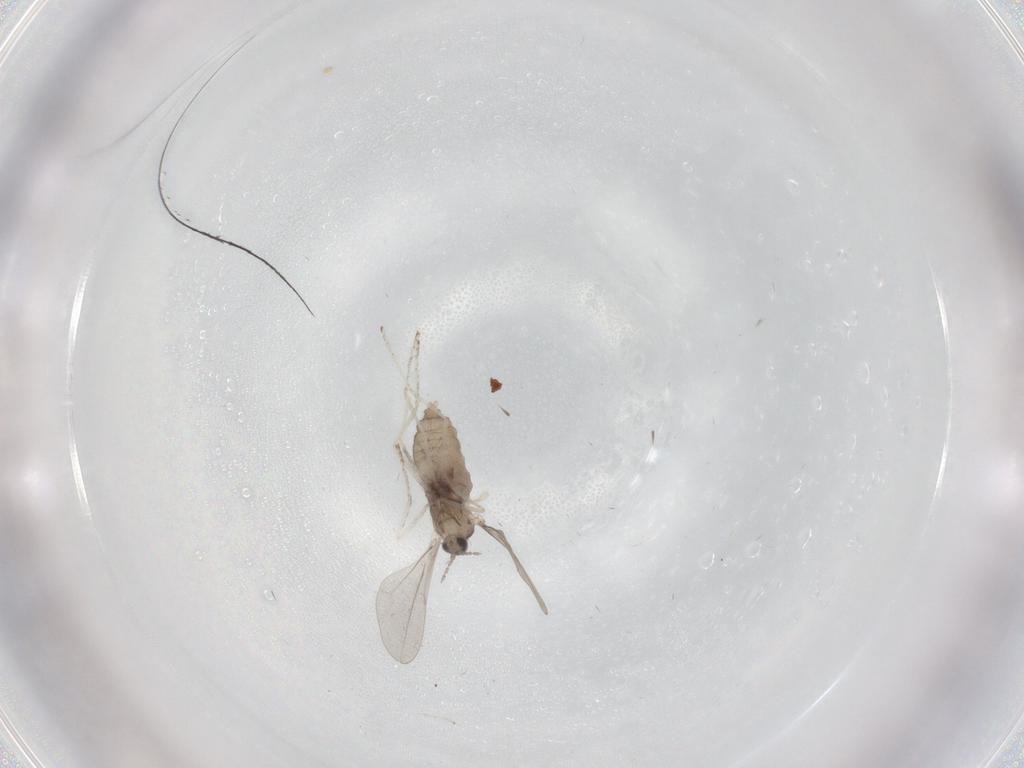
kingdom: Animalia
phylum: Arthropoda
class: Insecta
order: Diptera
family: Cecidomyiidae
